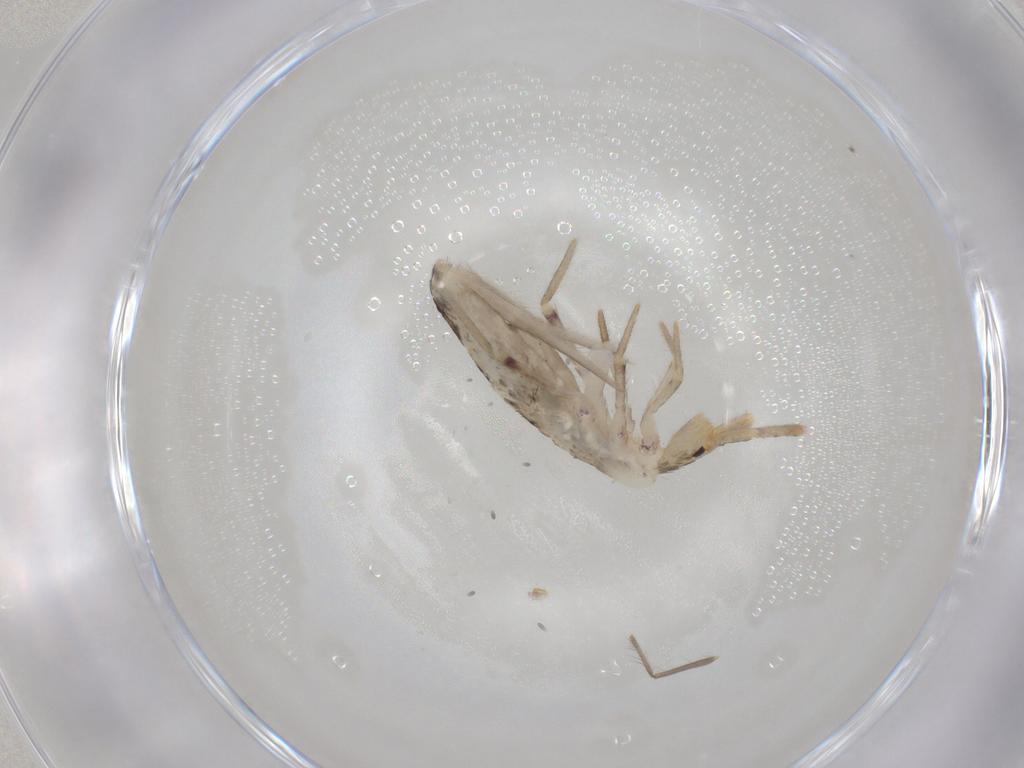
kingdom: Animalia
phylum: Arthropoda
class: Collembola
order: Poduromorpha
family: Hypogastruridae
